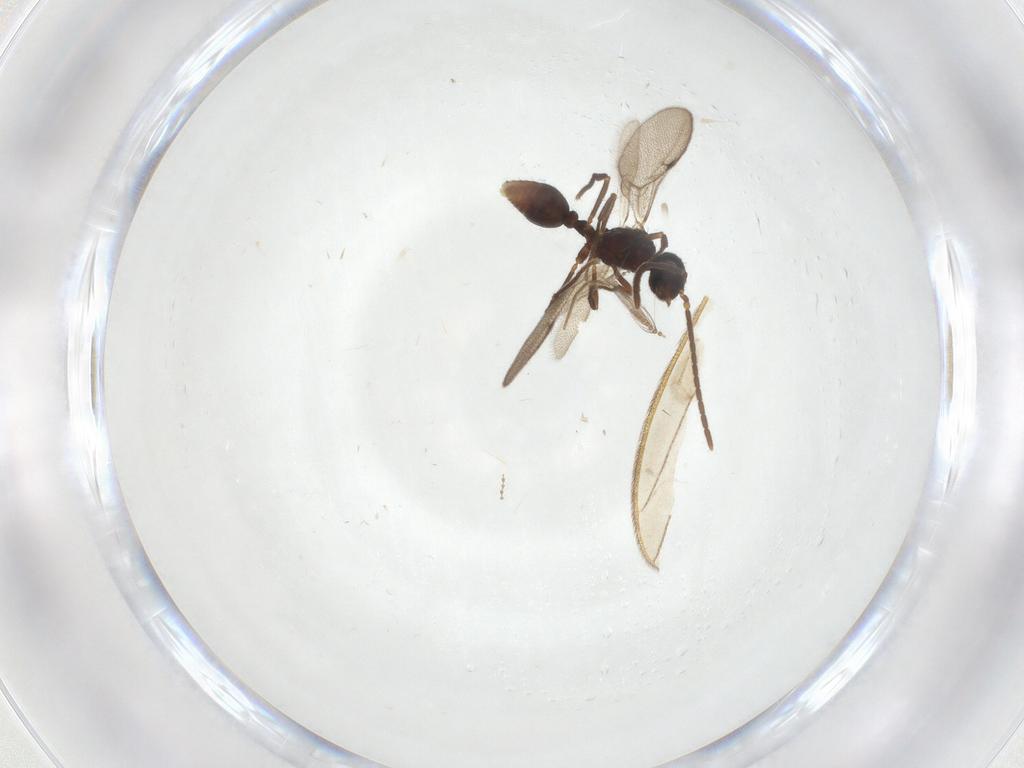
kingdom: Animalia
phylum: Arthropoda
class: Insecta
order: Hymenoptera
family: Formicidae
